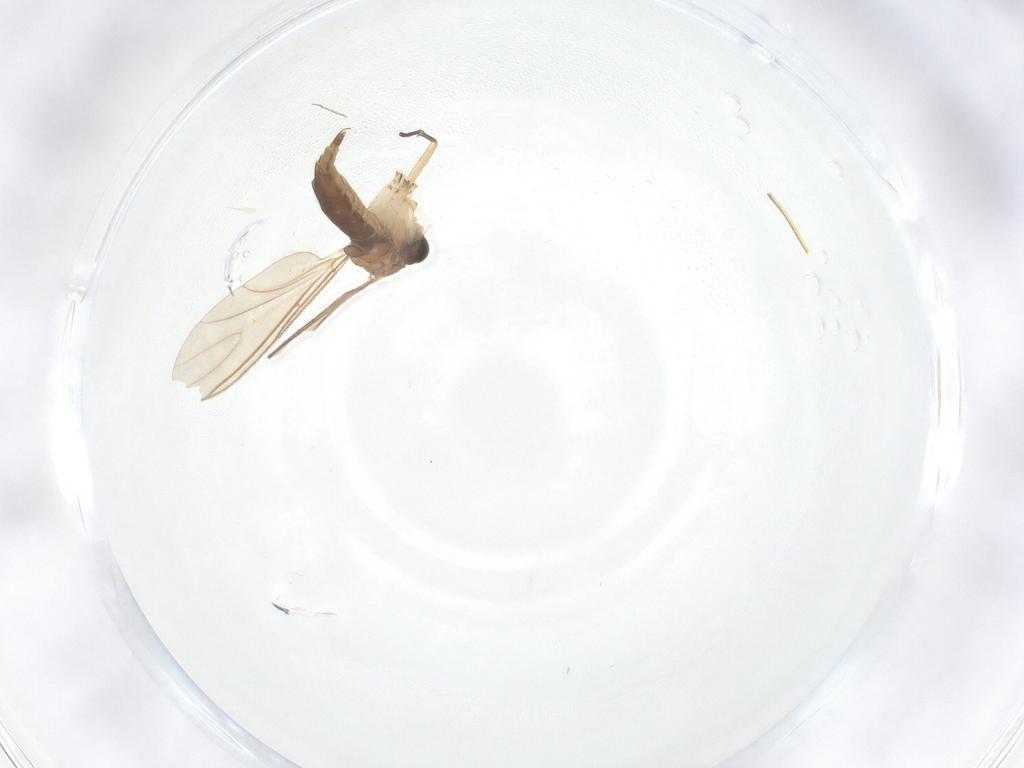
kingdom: Animalia
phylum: Arthropoda
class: Insecta
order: Diptera
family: Sciaridae
